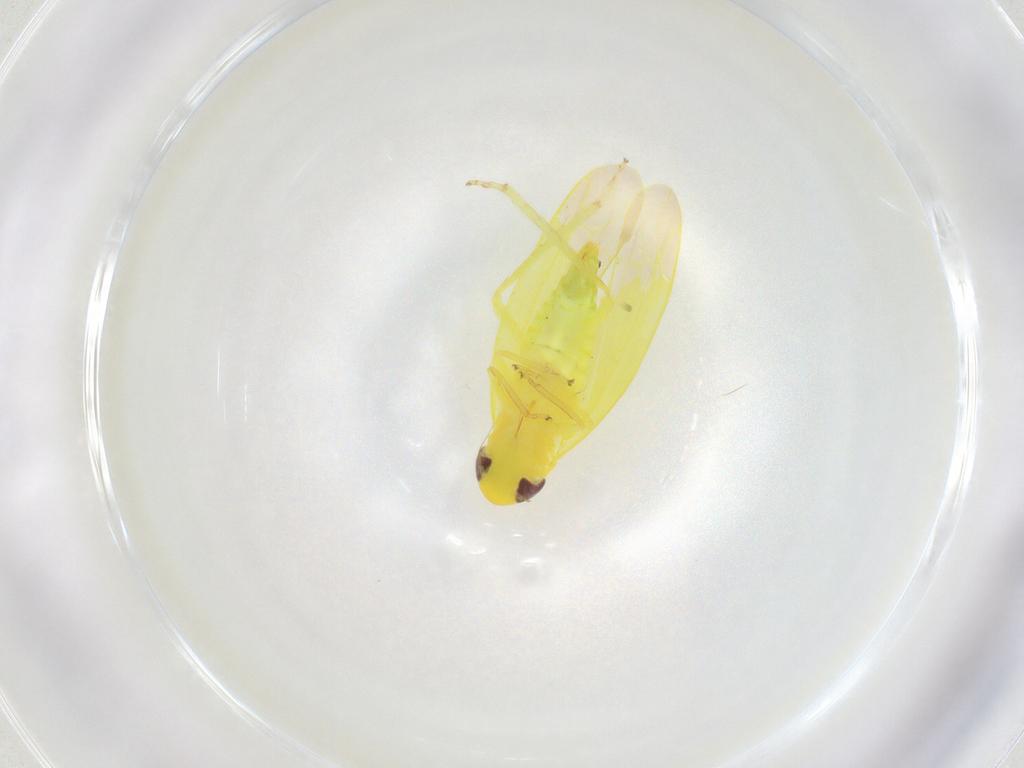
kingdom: Animalia
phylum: Arthropoda
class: Insecta
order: Hemiptera
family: Cicadellidae
